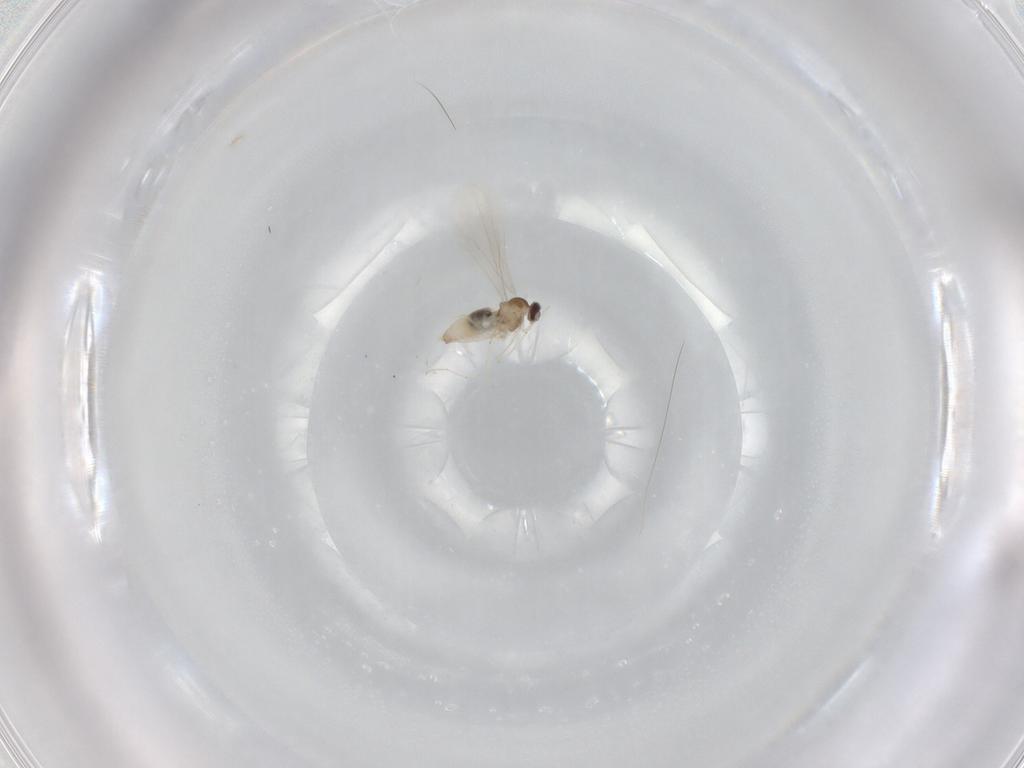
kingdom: Animalia
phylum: Arthropoda
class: Insecta
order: Diptera
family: Cecidomyiidae
